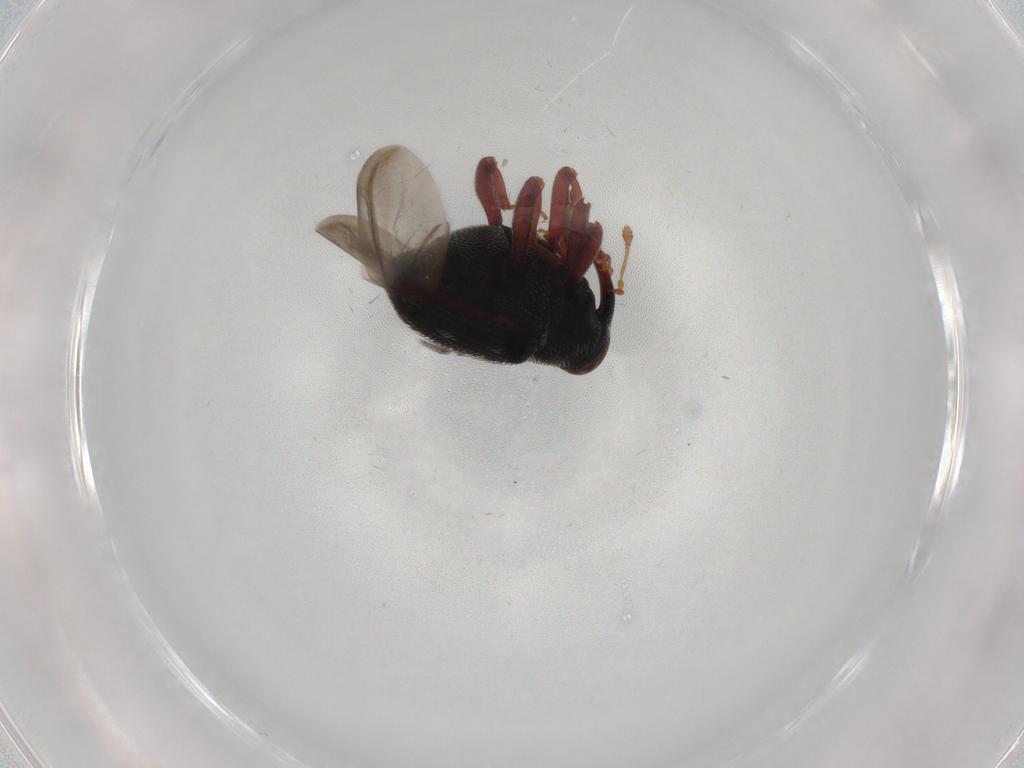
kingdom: Animalia
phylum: Arthropoda
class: Insecta
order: Coleoptera
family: Curculionidae
